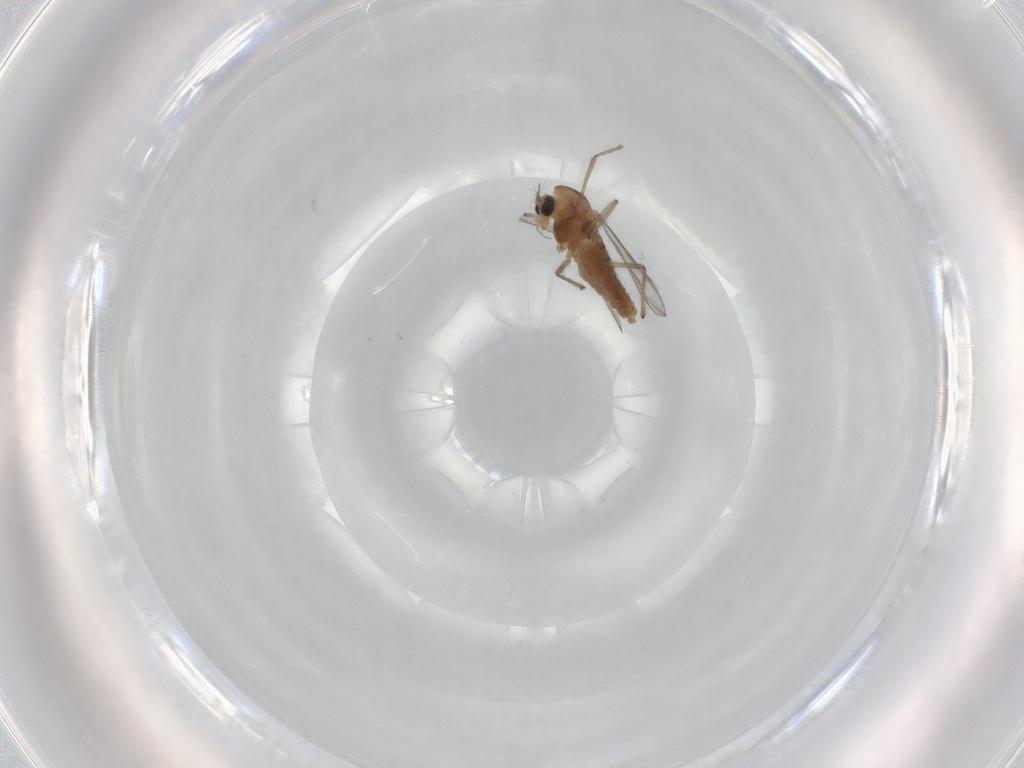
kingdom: Animalia
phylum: Arthropoda
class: Insecta
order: Diptera
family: Chironomidae
